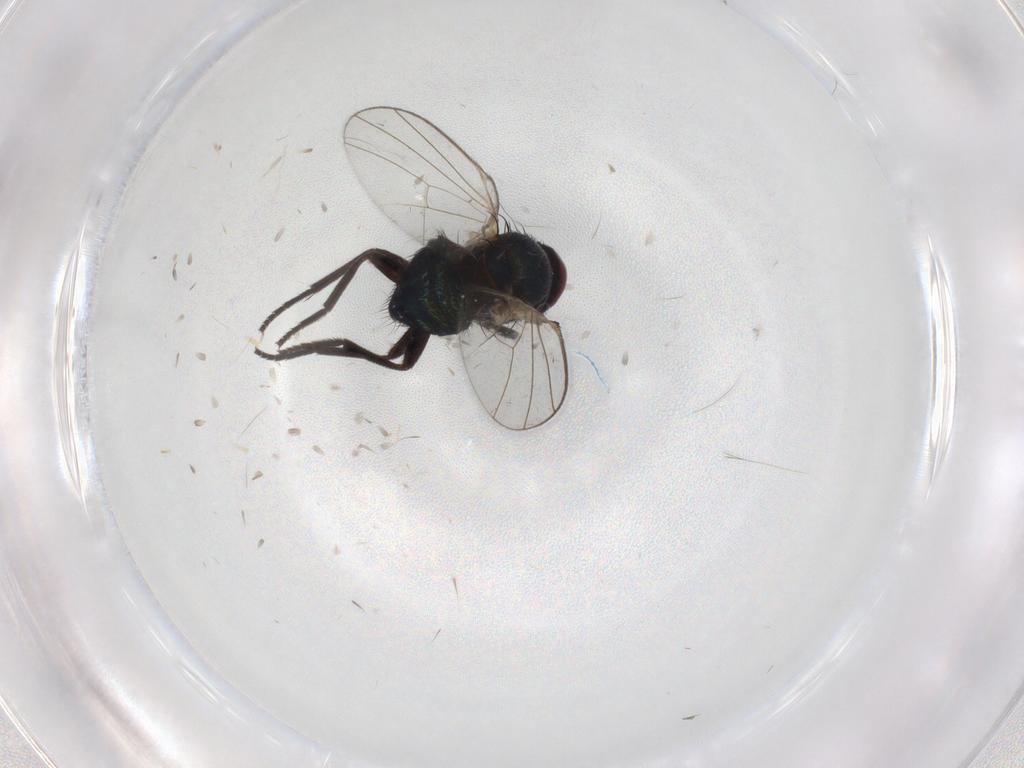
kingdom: Animalia
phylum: Arthropoda
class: Insecta
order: Diptera
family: Agromyzidae
